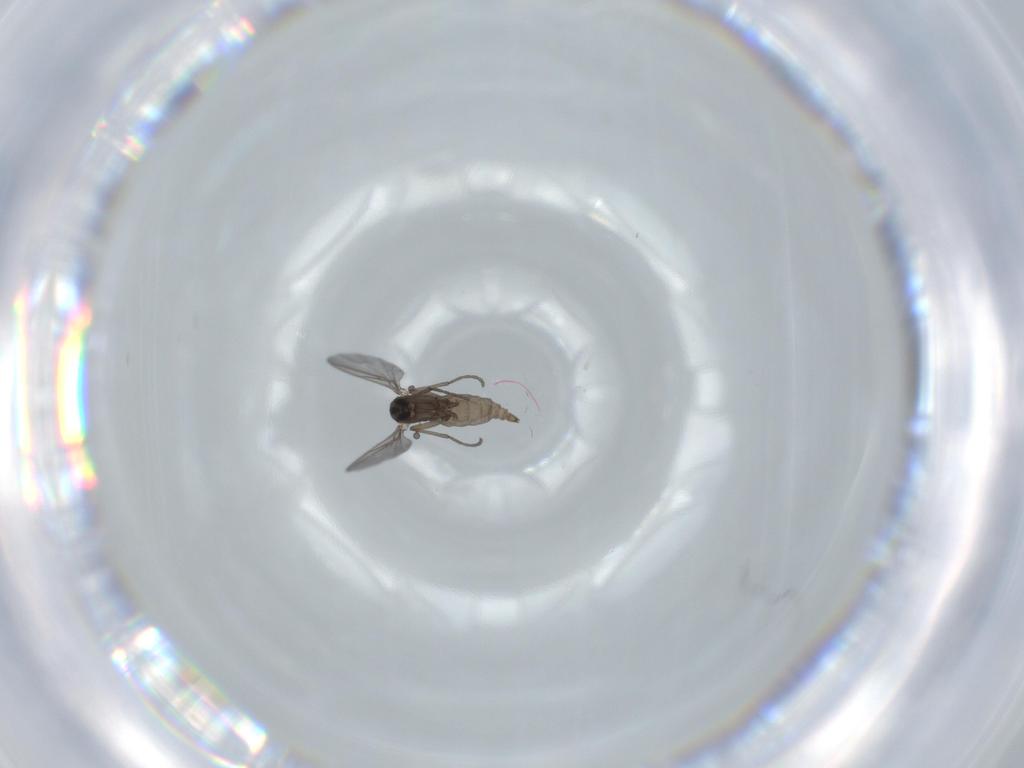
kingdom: Animalia
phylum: Arthropoda
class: Insecta
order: Diptera
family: Sciaridae
